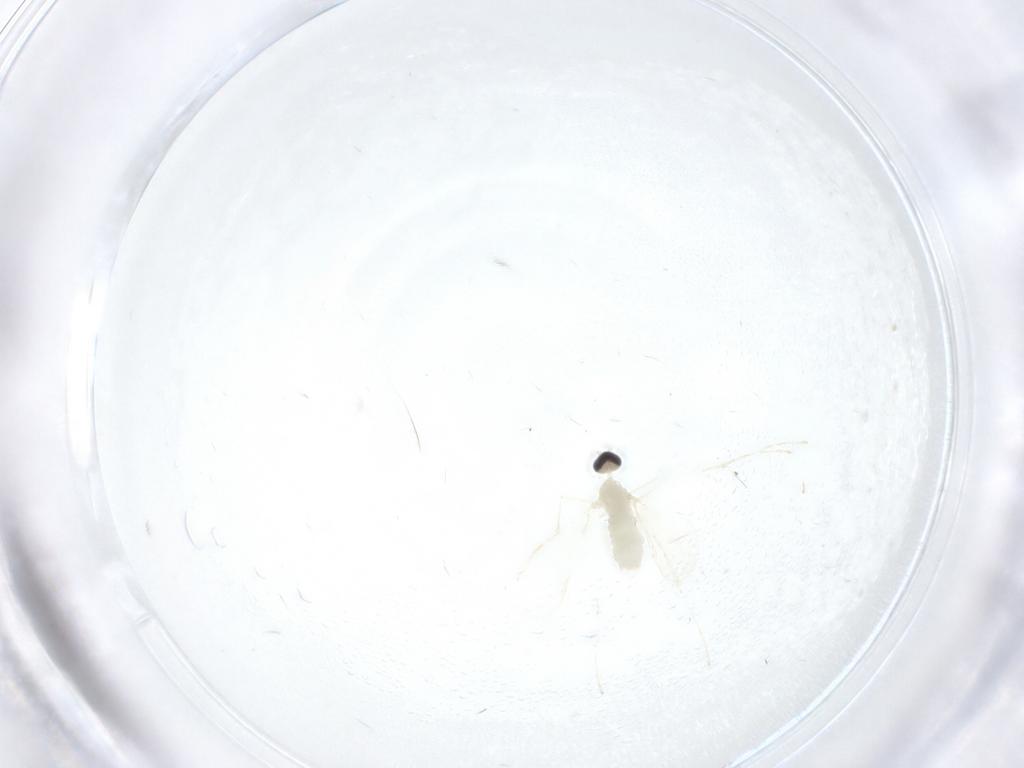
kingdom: Animalia
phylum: Arthropoda
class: Insecta
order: Diptera
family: Cecidomyiidae
